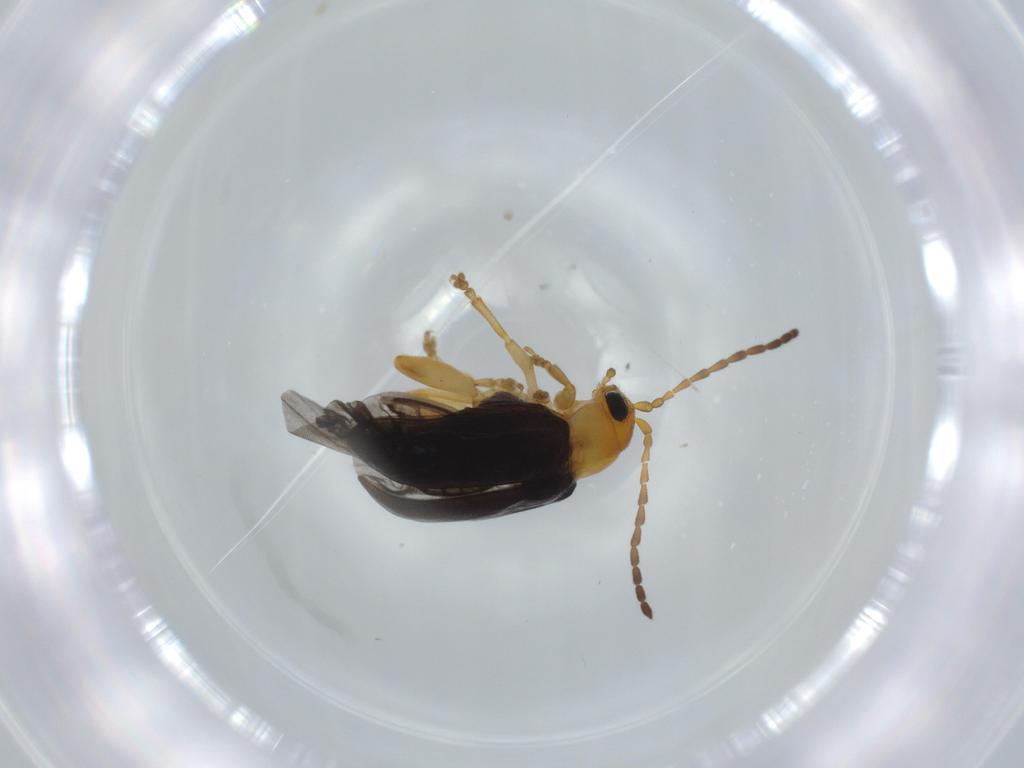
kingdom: Animalia
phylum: Arthropoda
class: Insecta
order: Coleoptera
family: Chrysomelidae
